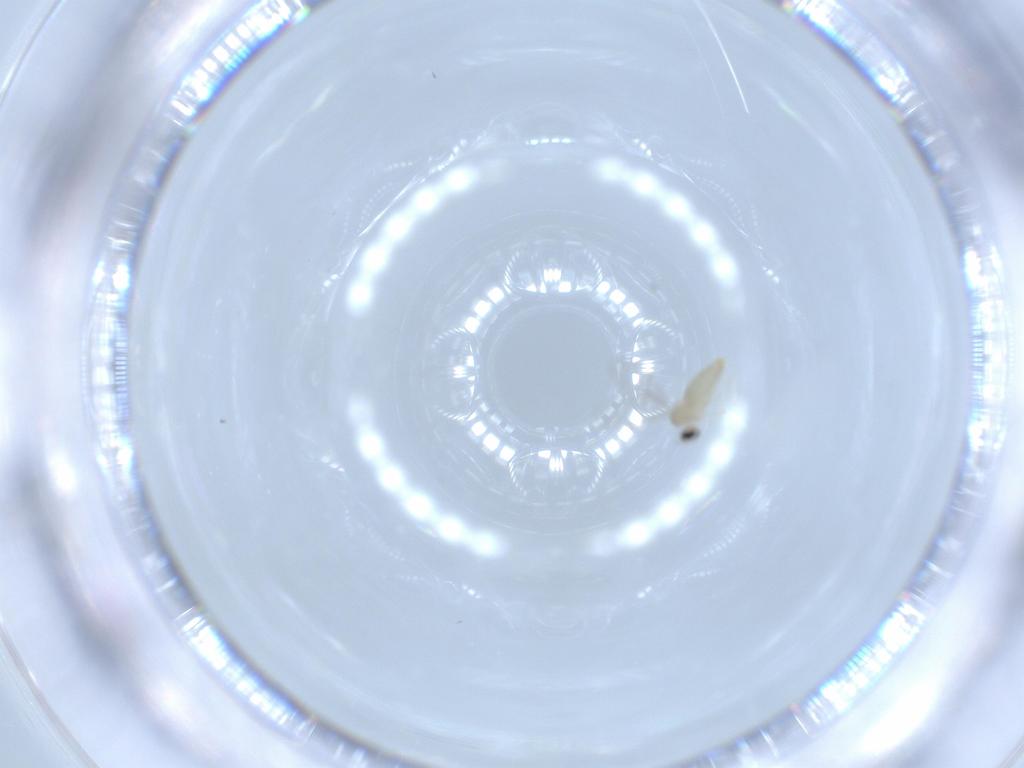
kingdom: Animalia
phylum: Arthropoda
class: Insecta
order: Diptera
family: Cecidomyiidae
